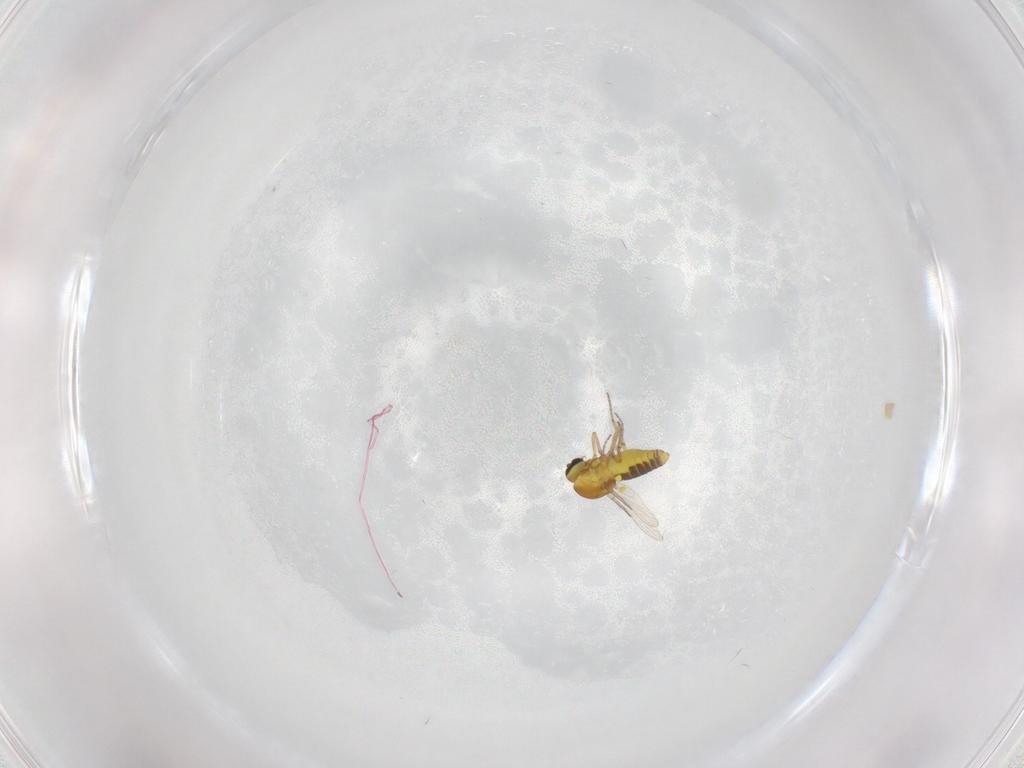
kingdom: Animalia
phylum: Arthropoda
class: Insecta
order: Diptera
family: Ceratopogonidae
